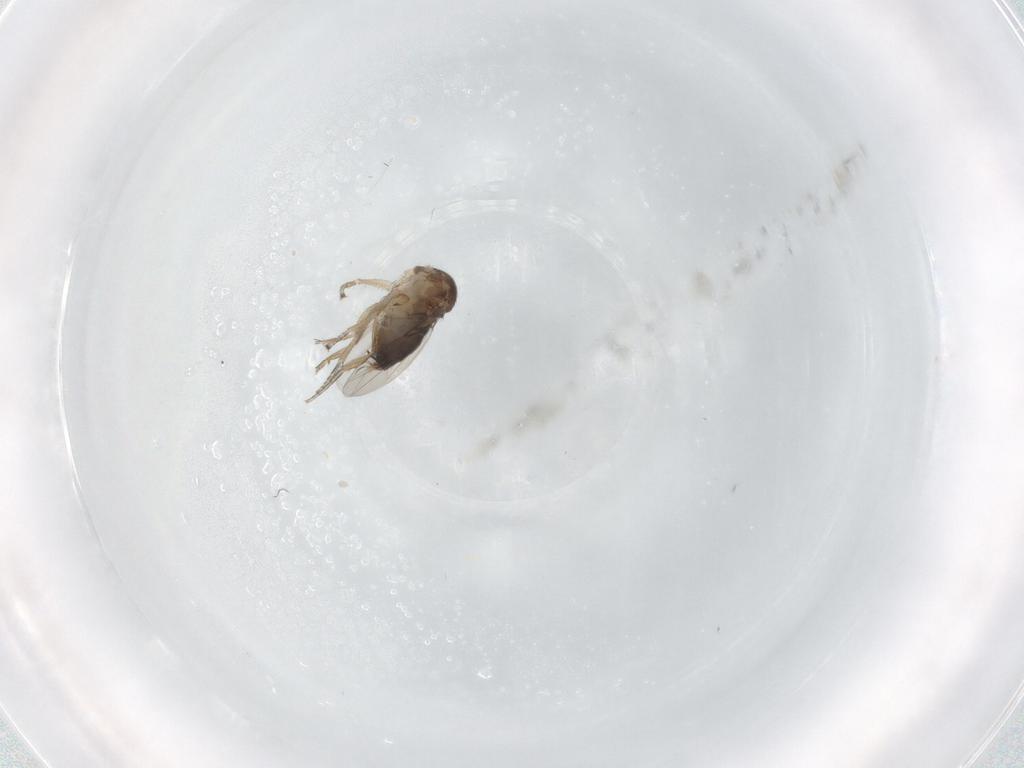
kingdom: Animalia
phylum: Arthropoda
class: Insecta
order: Diptera
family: Phoridae
